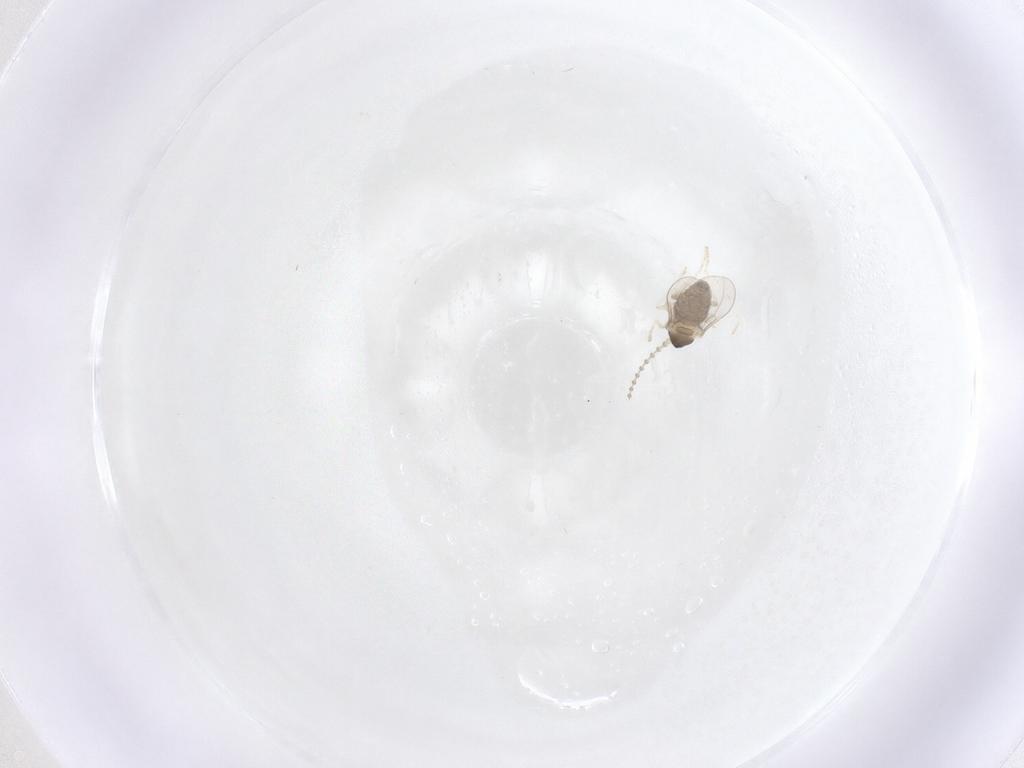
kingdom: Animalia
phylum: Arthropoda
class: Insecta
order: Diptera
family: Cecidomyiidae
